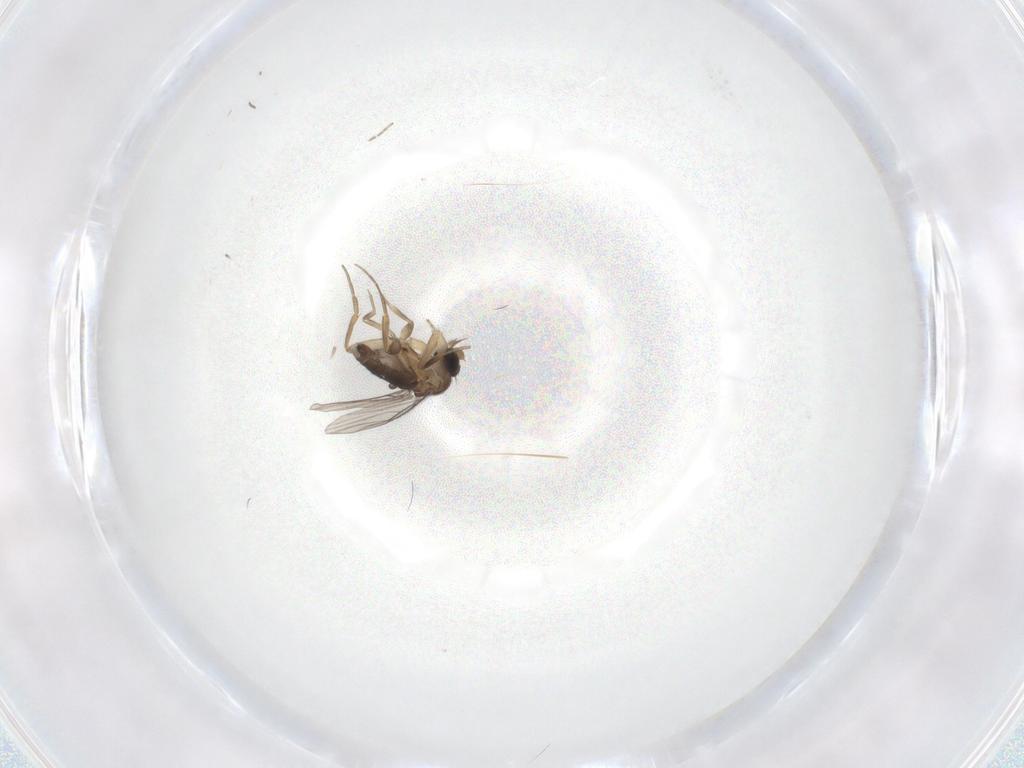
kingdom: Animalia
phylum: Arthropoda
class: Insecta
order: Diptera
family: Phoridae
